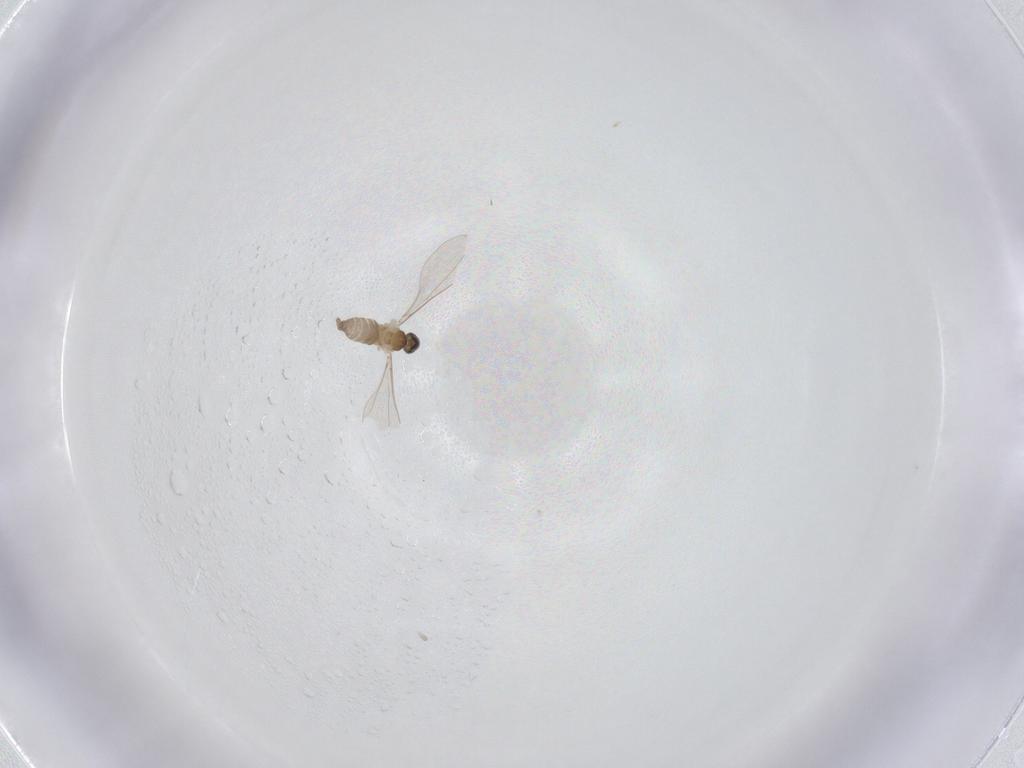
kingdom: Animalia
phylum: Arthropoda
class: Insecta
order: Diptera
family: Cecidomyiidae
